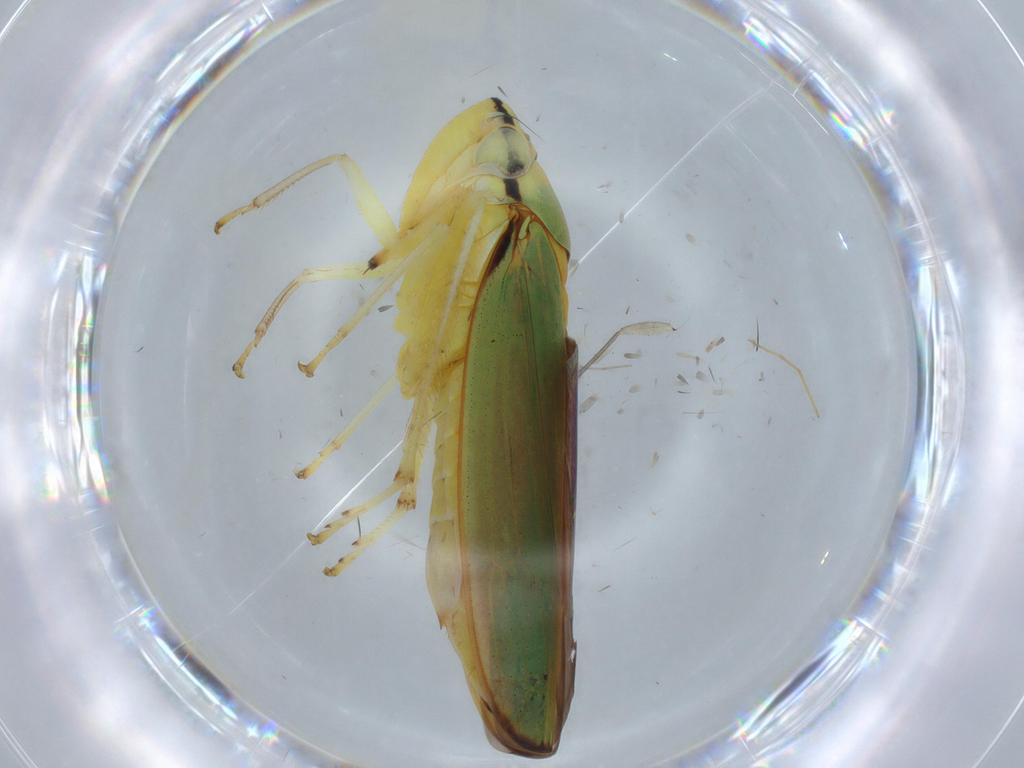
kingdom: Animalia
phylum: Arthropoda
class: Insecta
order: Hemiptera
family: Cicadellidae
